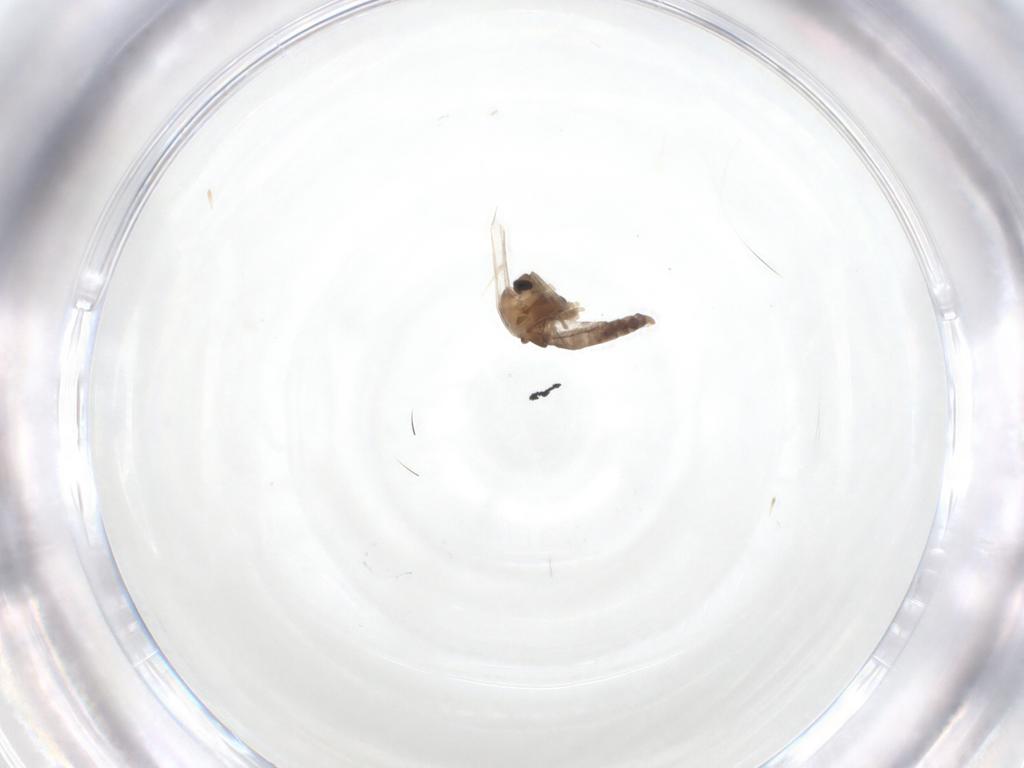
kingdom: Animalia
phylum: Arthropoda
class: Insecta
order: Diptera
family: Chironomidae
